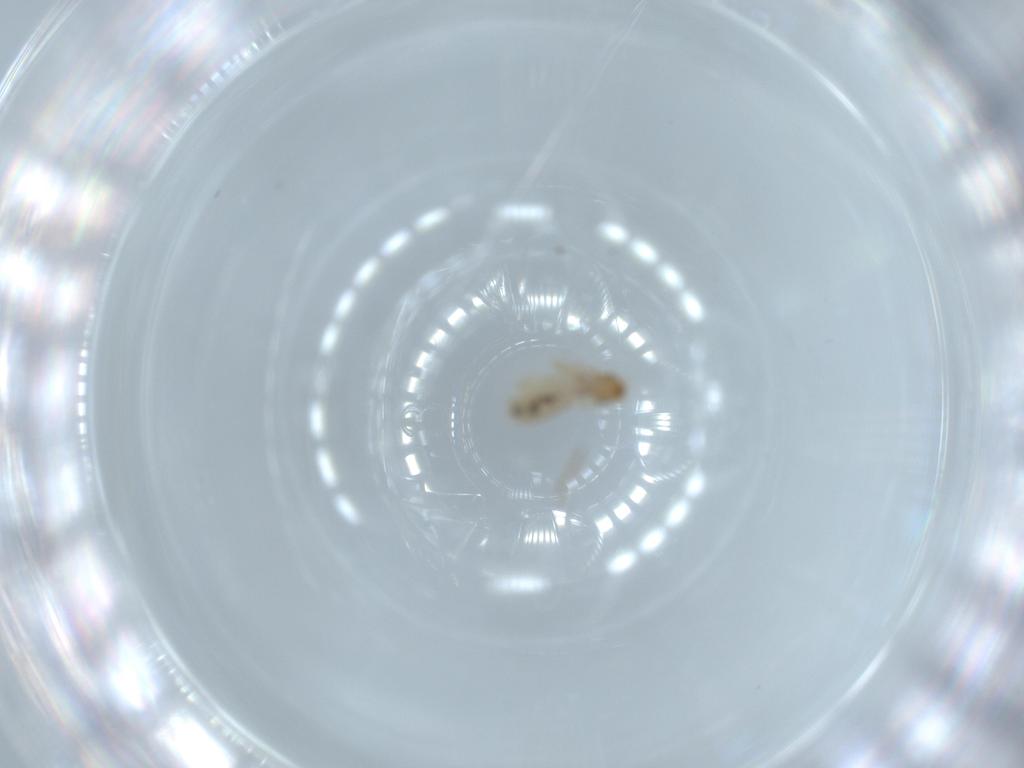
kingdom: Animalia
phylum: Arthropoda
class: Insecta
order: Psocodea
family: Liposcelididae
